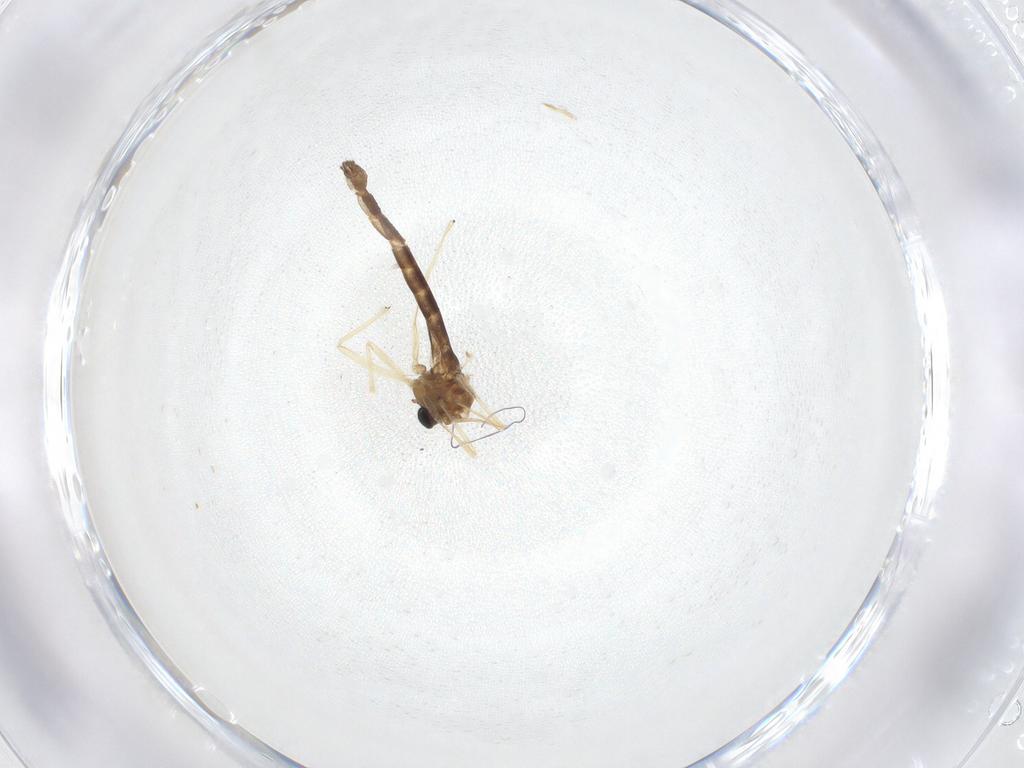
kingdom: Animalia
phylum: Arthropoda
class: Insecta
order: Diptera
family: Chironomidae
